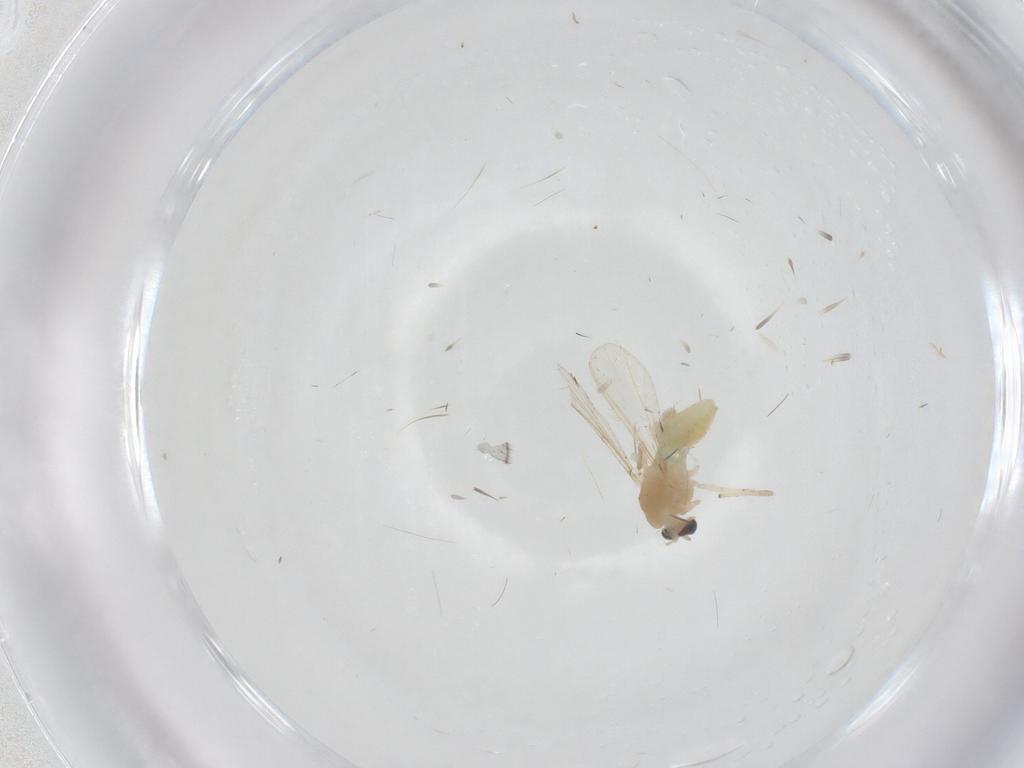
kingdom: Animalia
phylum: Arthropoda
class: Insecta
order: Diptera
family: Chironomidae
